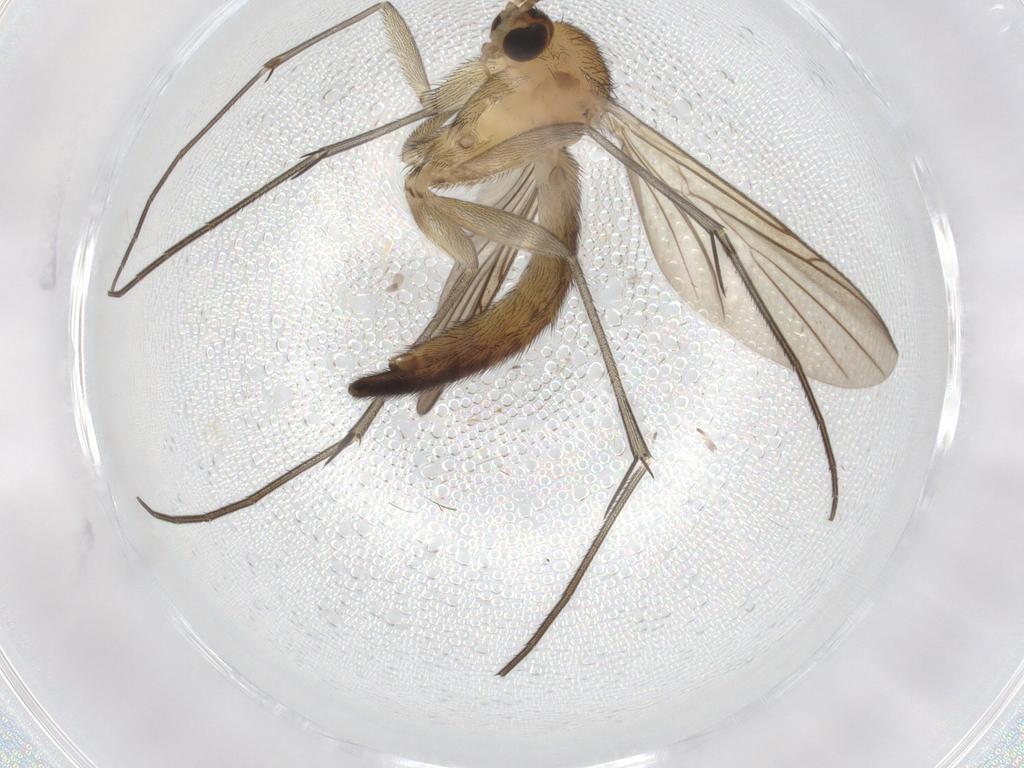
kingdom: Animalia
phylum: Arthropoda
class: Insecta
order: Diptera
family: Keroplatidae
